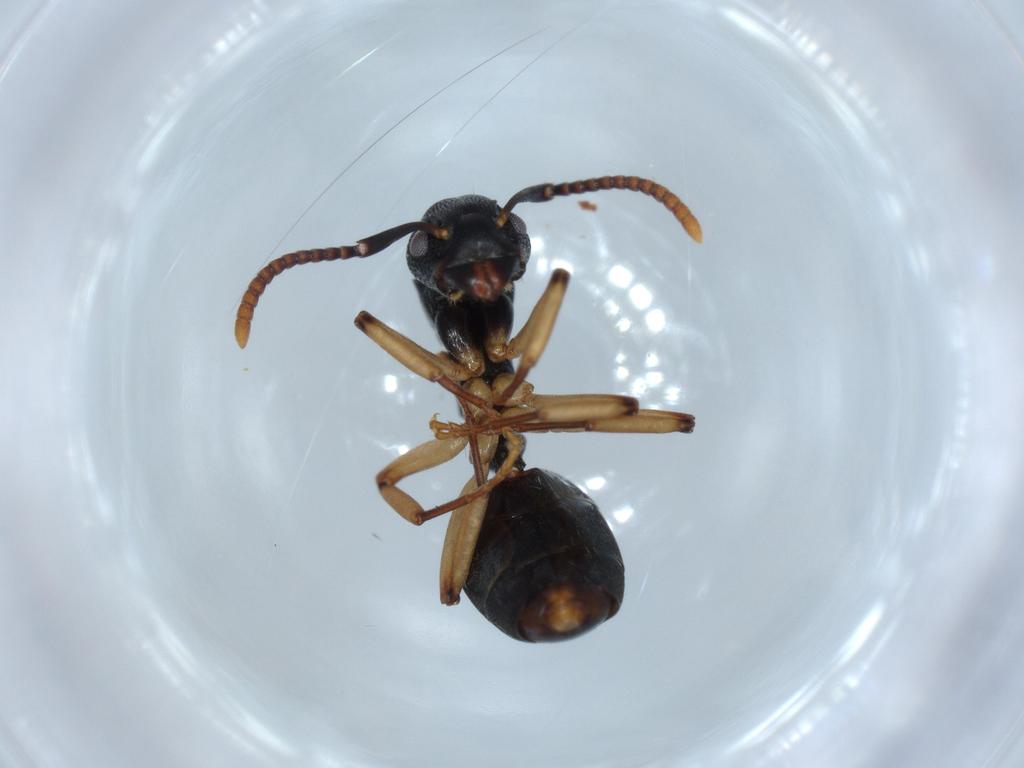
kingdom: Animalia
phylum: Arthropoda
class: Insecta
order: Hymenoptera
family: Formicidae
